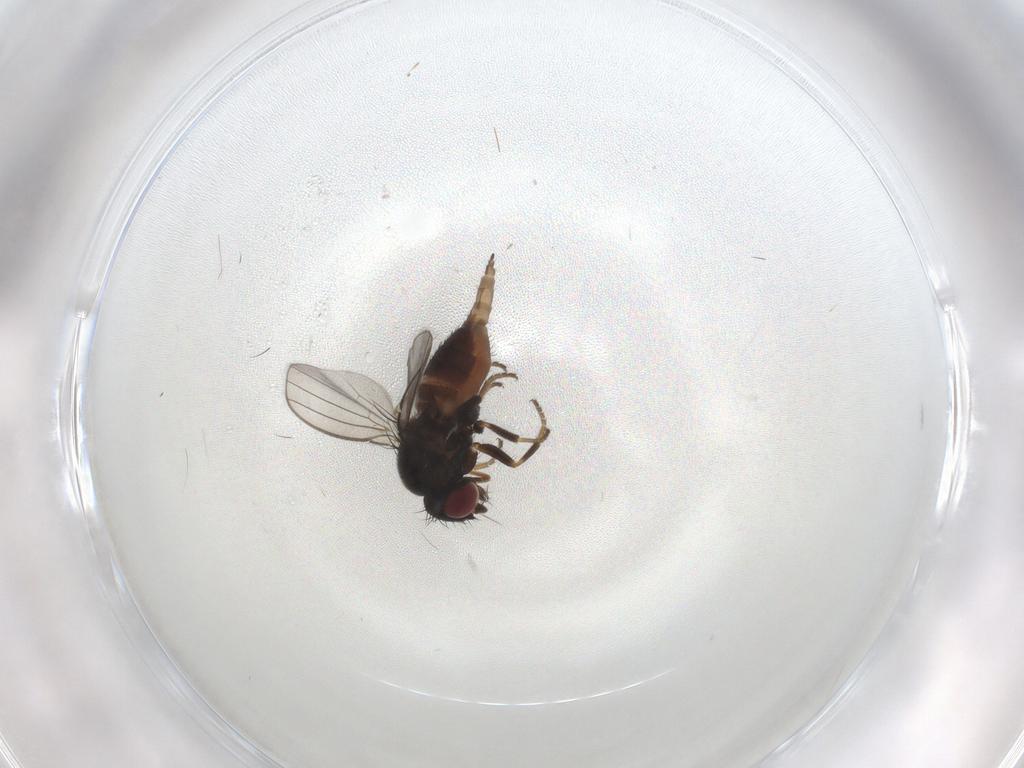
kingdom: Animalia
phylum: Arthropoda
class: Insecta
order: Diptera
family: Milichiidae
